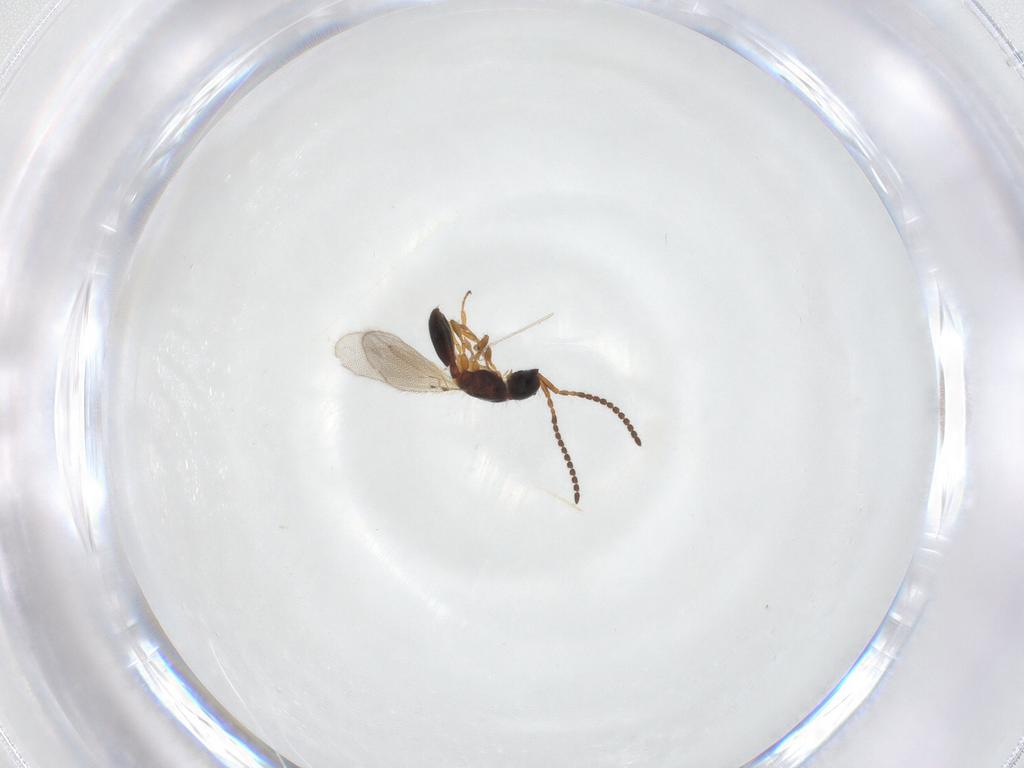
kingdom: Animalia
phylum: Arthropoda
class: Insecta
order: Hymenoptera
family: Diapriidae
